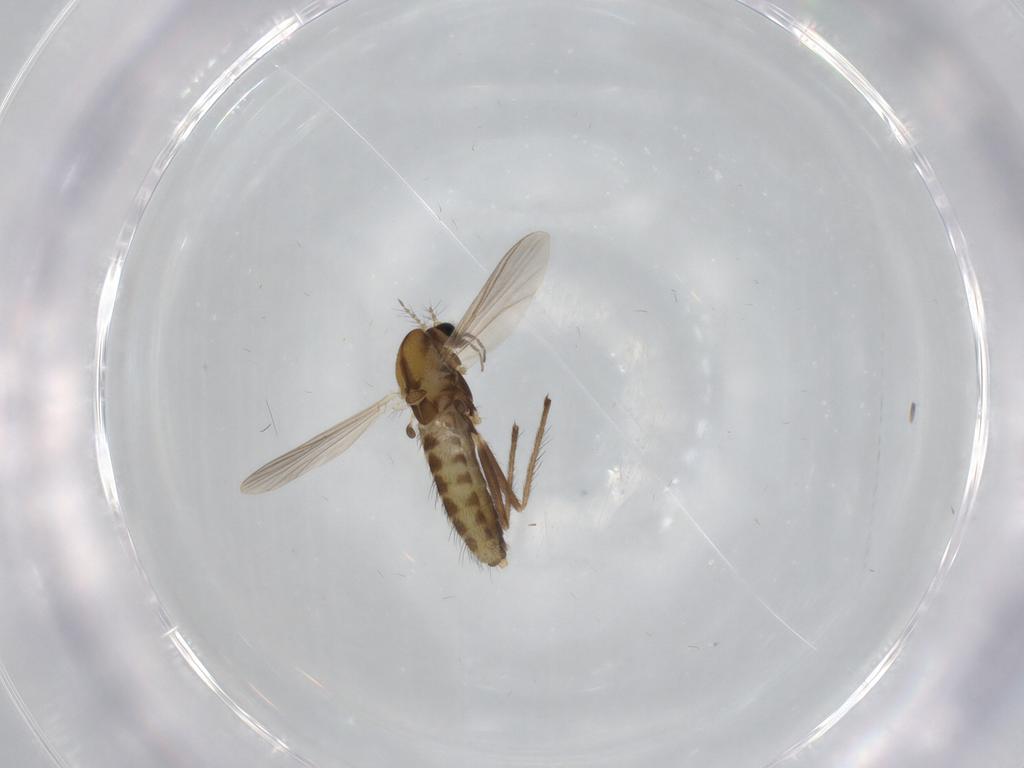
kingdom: Animalia
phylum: Arthropoda
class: Insecta
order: Diptera
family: Chironomidae
